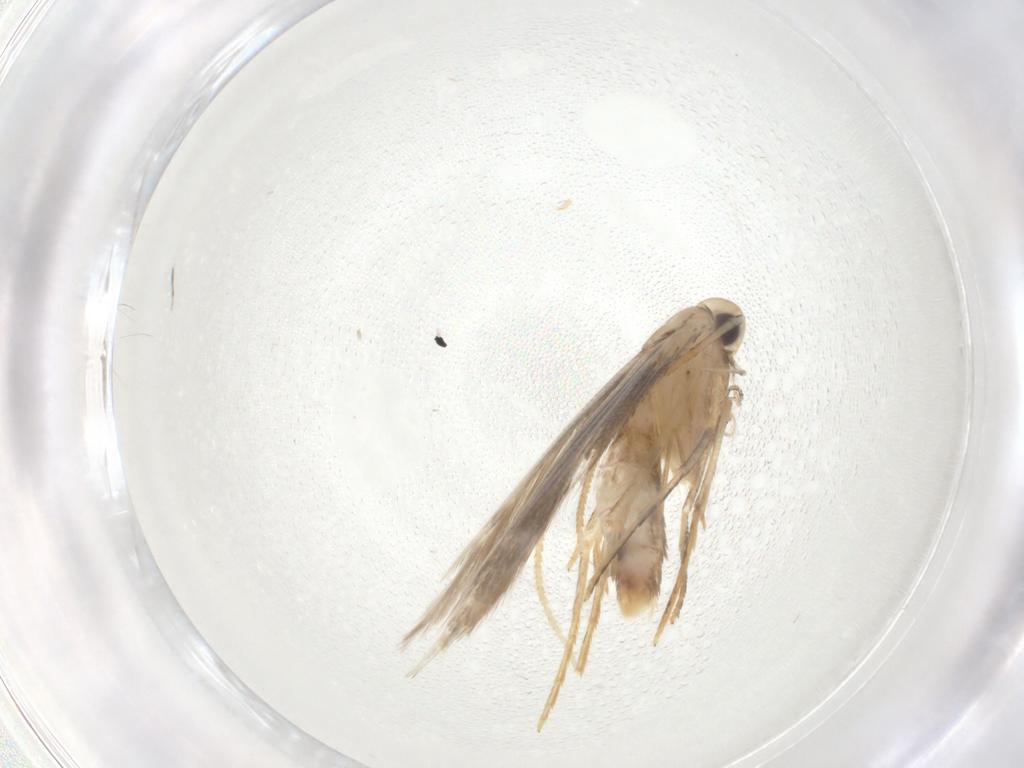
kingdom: Animalia
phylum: Arthropoda
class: Insecta
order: Lepidoptera
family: Cosmopterigidae
